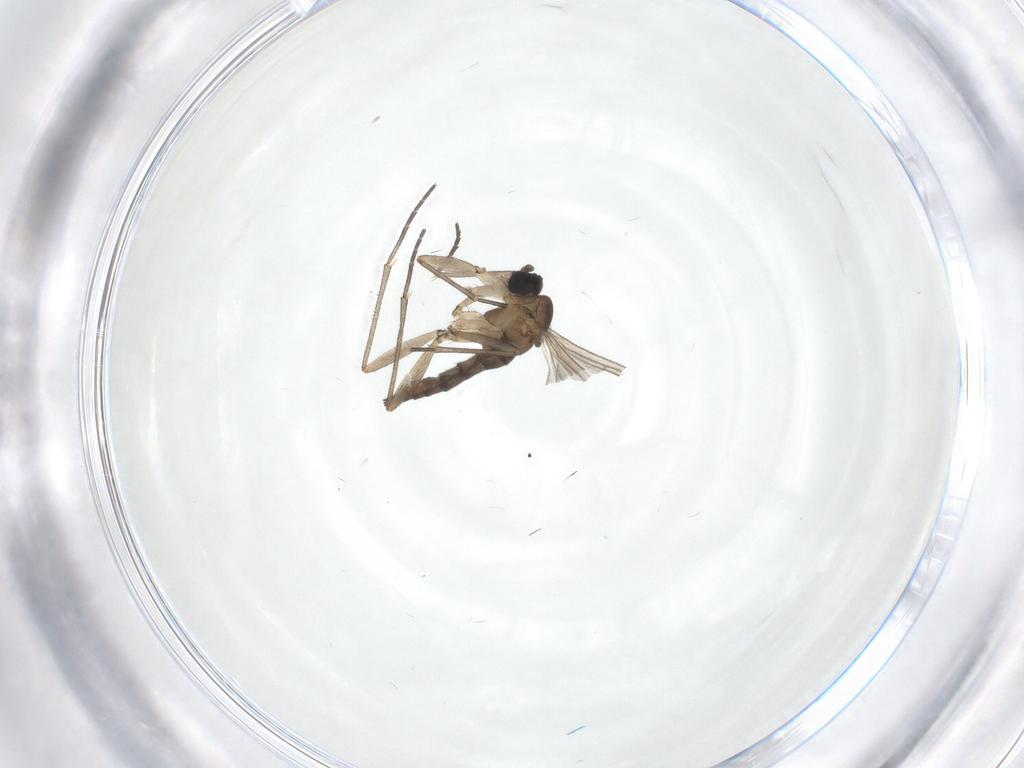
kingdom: Animalia
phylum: Arthropoda
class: Insecta
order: Diptera
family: Sciaridae
